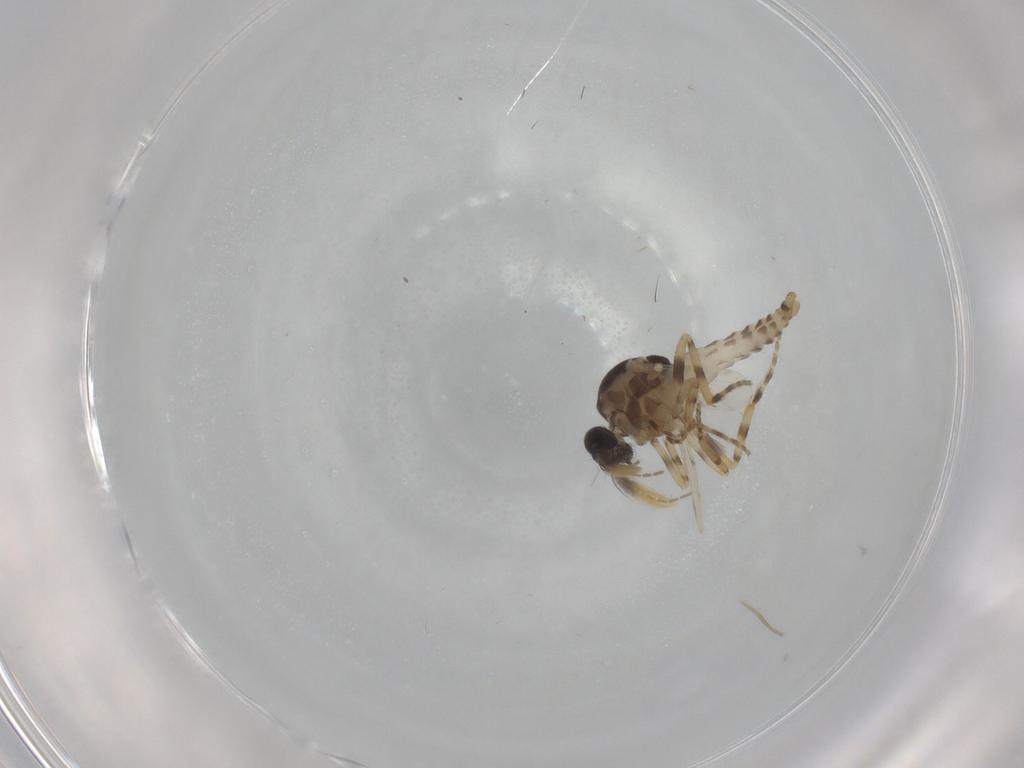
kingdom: Animalia
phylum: Arthropoda
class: Insecta
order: Diptera
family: Ceratopogonidae
